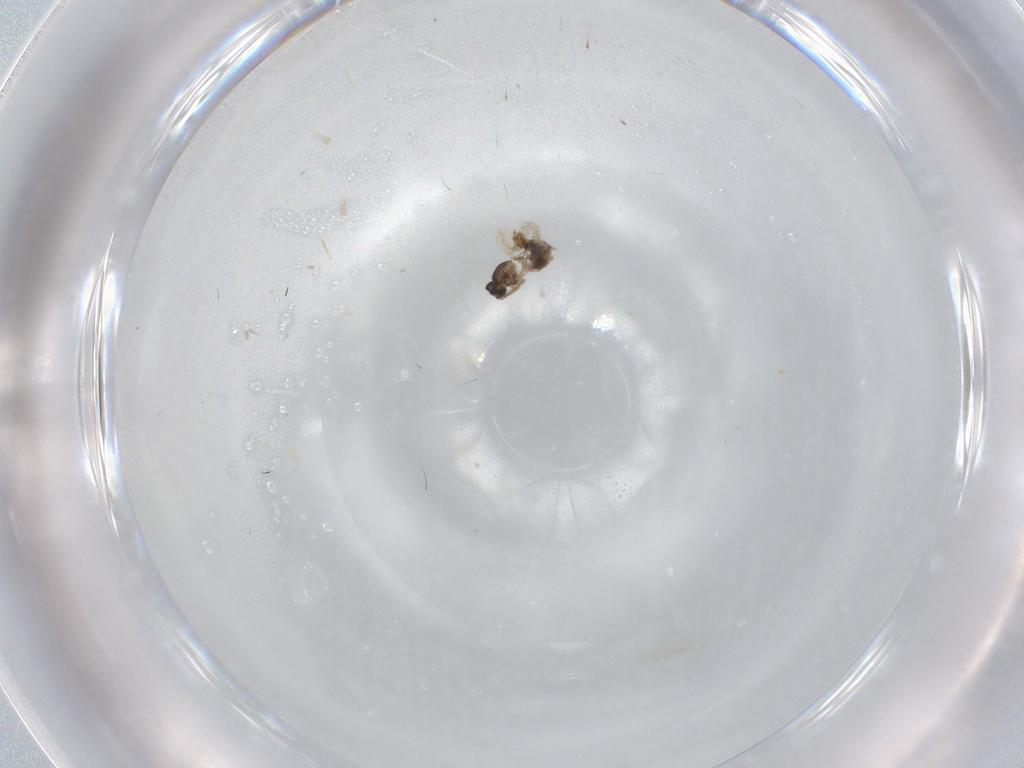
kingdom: Animalia
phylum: Arthropoda
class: Insecta
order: Diptera
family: Cecidomyiidae
